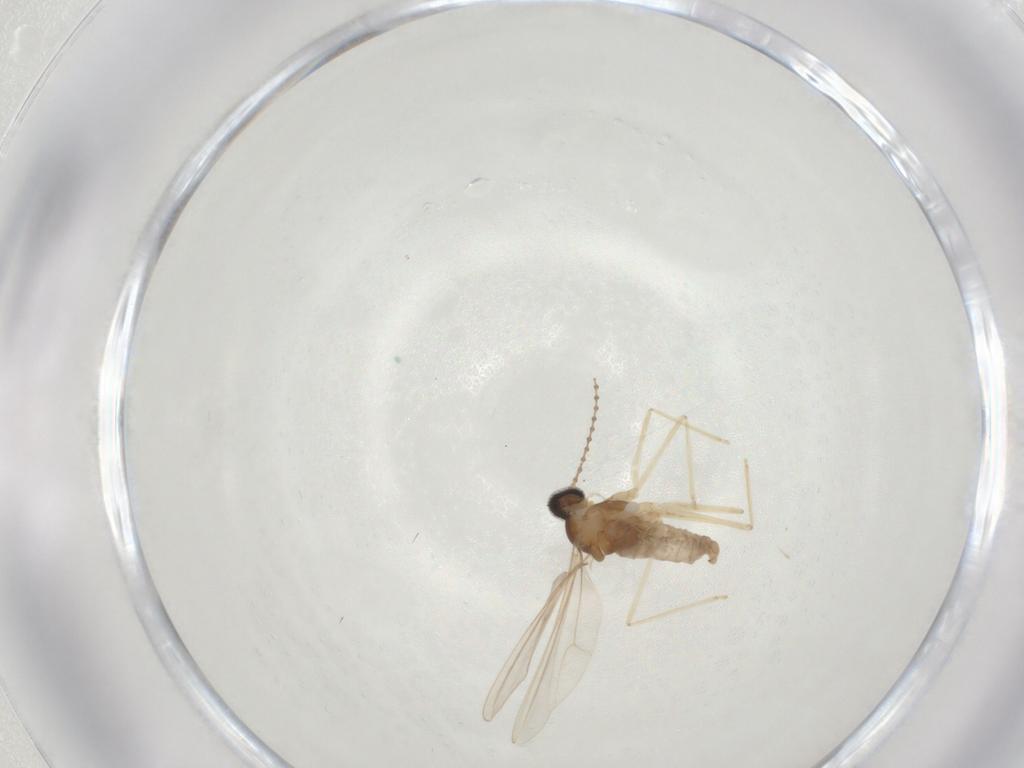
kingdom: Animalia
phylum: Arthropoda
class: Insecta
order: Diptera
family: Cecidomyiidae
